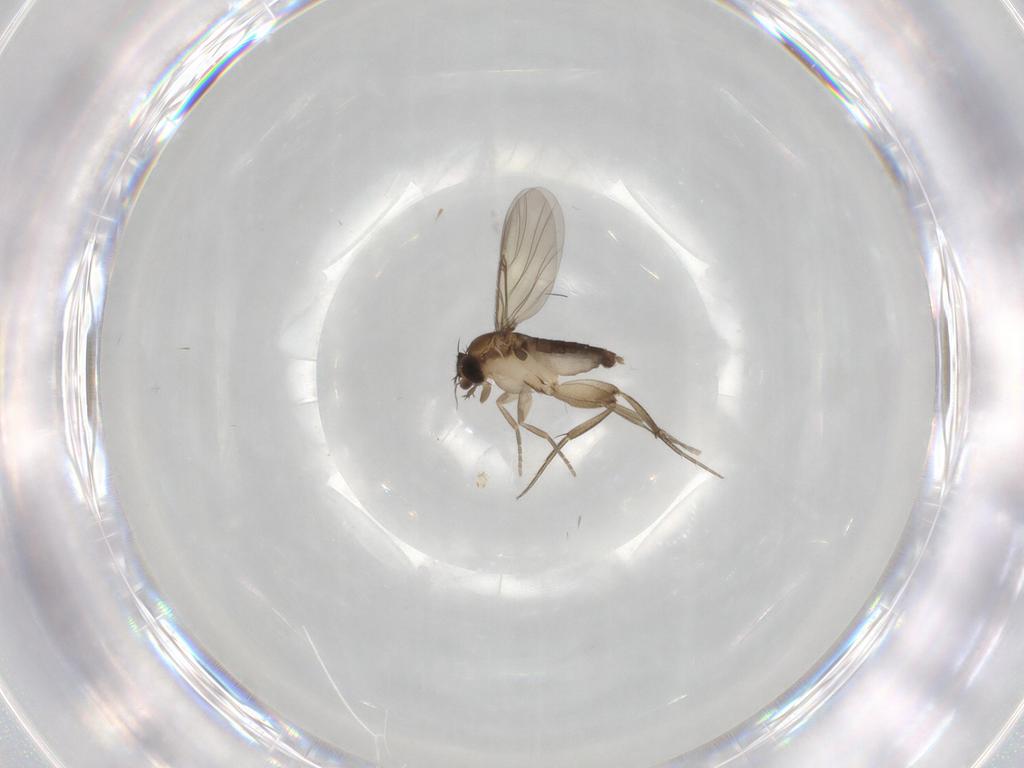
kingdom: Animalia
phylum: Arthropoda
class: Insecta
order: Diptera
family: Phoridae
